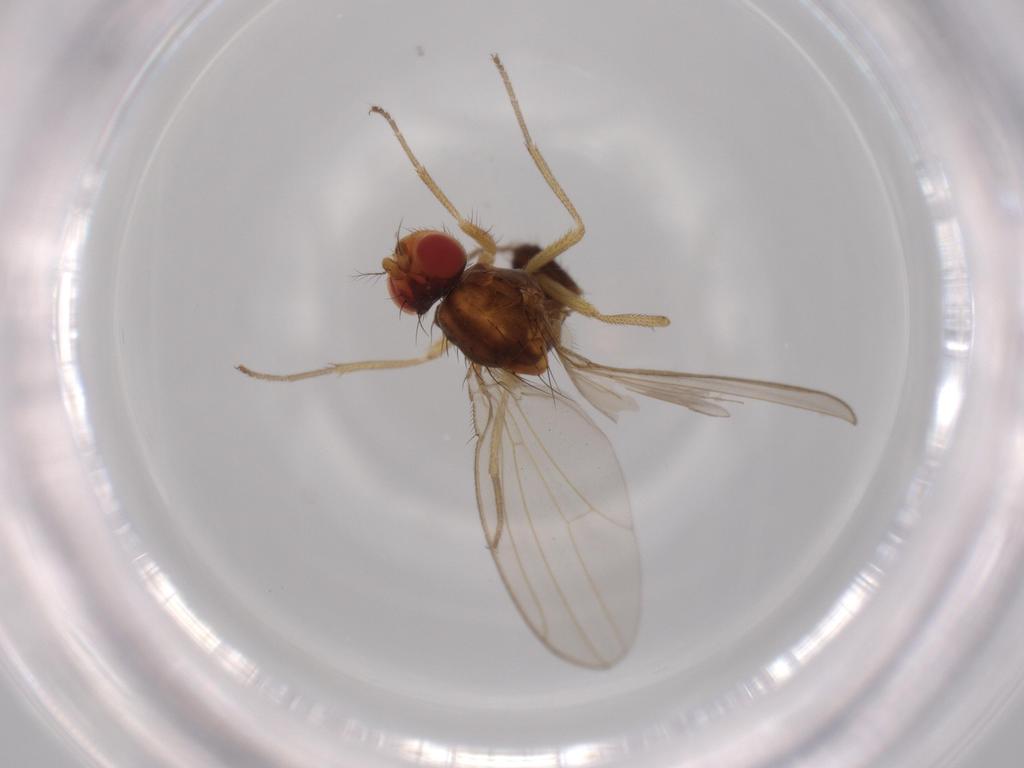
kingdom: Animalia
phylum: Arthropoda
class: Insecta
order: Diptera
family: Drosophilidae
